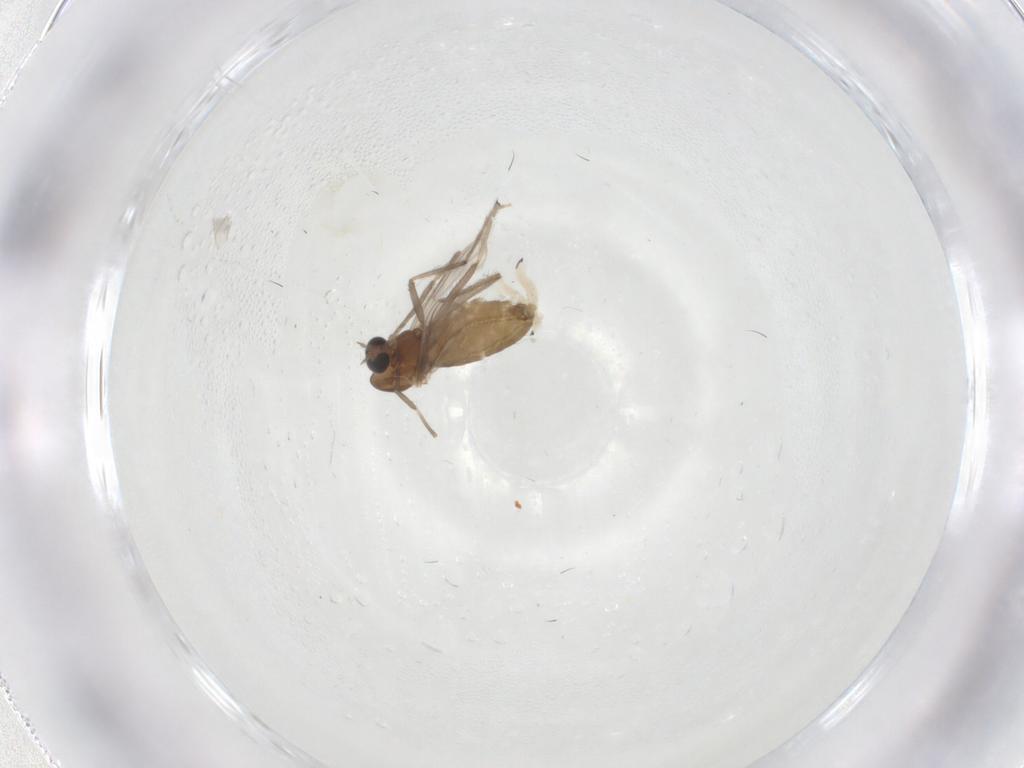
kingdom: Animalia
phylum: Arthropoda
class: Insecta
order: Diptera
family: Chironomidae
